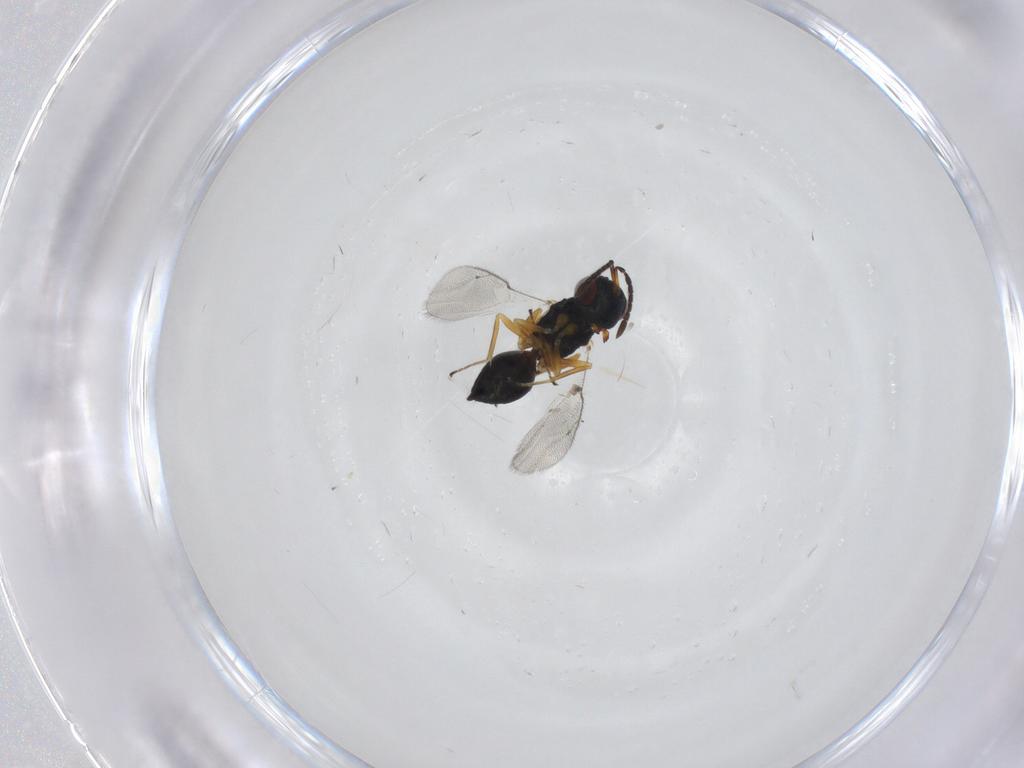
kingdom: Animalia
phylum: Arthropoda
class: Insecta
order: Hymenoptera
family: Pteromalidae
